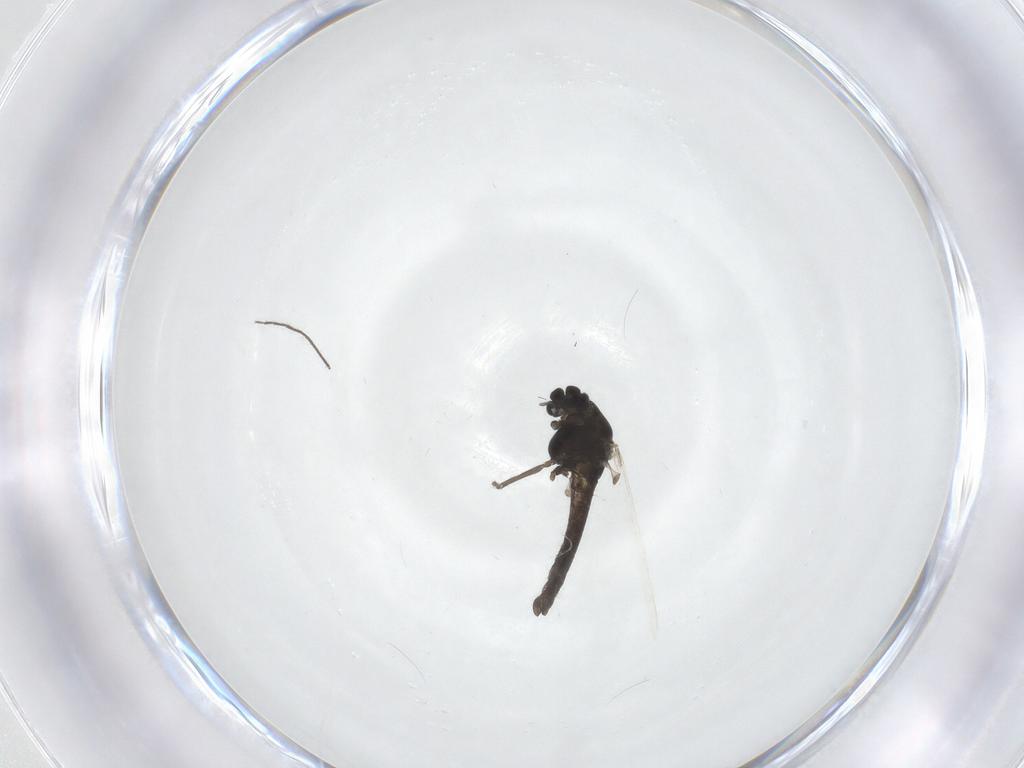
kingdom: Animalia
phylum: Arthropoda
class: Insecta
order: Diptera
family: Chironomidae
